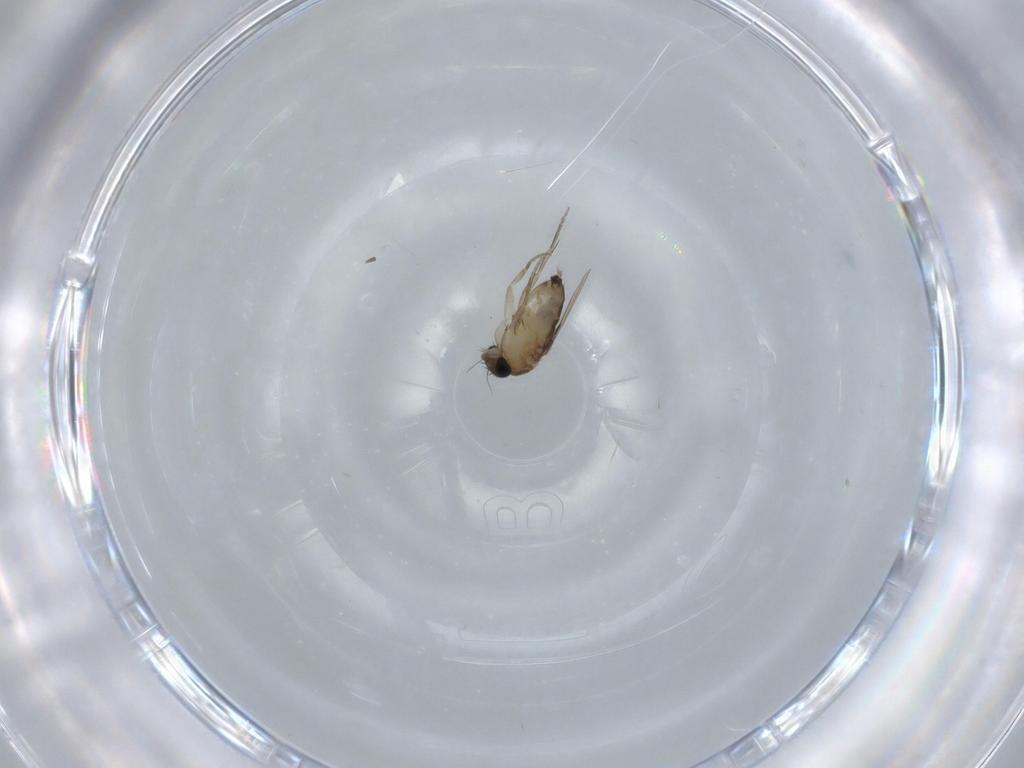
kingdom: Animalia
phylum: Arthropoda
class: Insecta
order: Diptera
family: Phoridae
